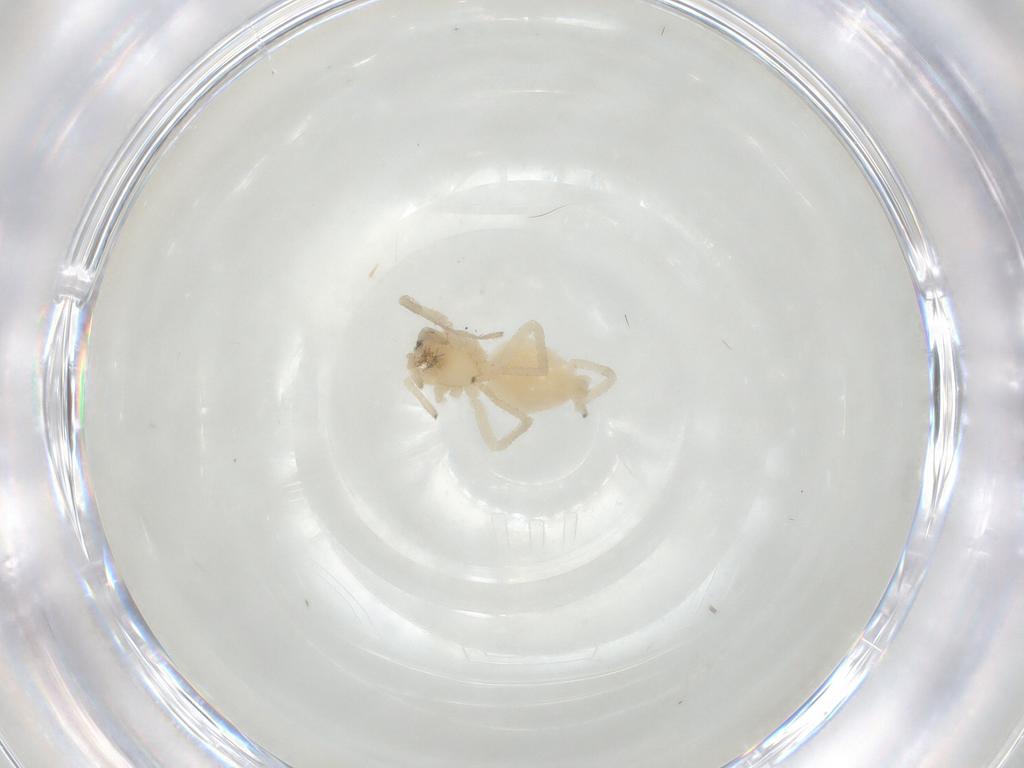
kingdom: Animalia
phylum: Arthropoda
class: Arachnida
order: Araneae
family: Cheiracanthiidae
